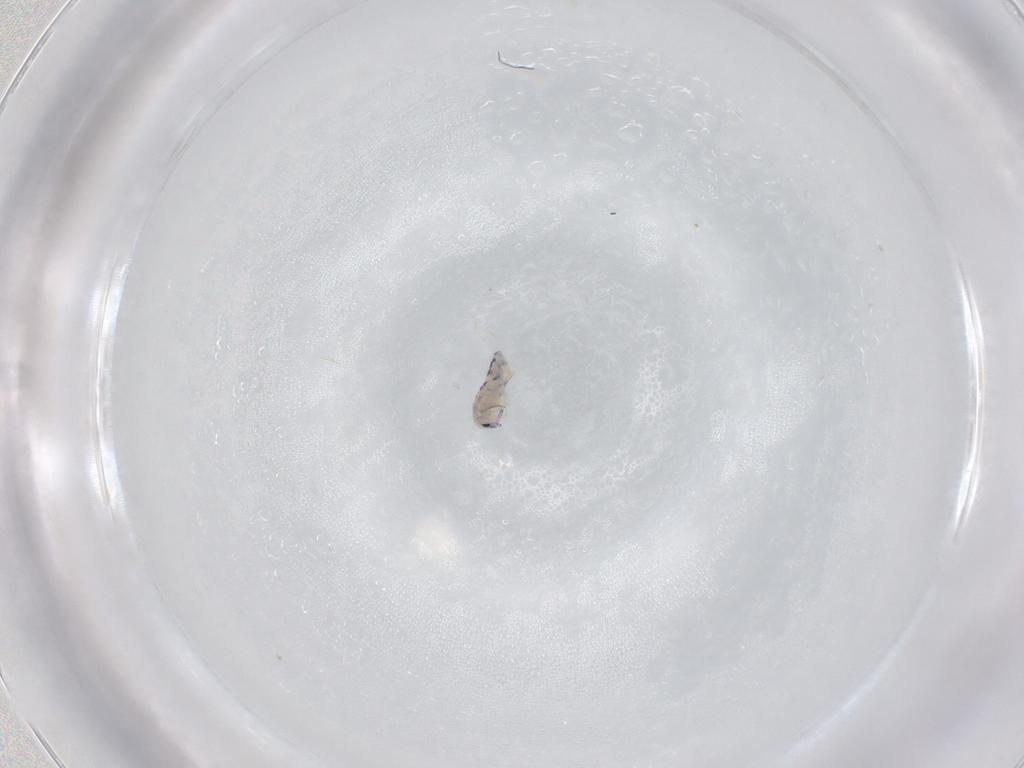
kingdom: Animalia
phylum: Arthropoda
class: Collembola
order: Entomobryomorpha
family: Entomobryidae
